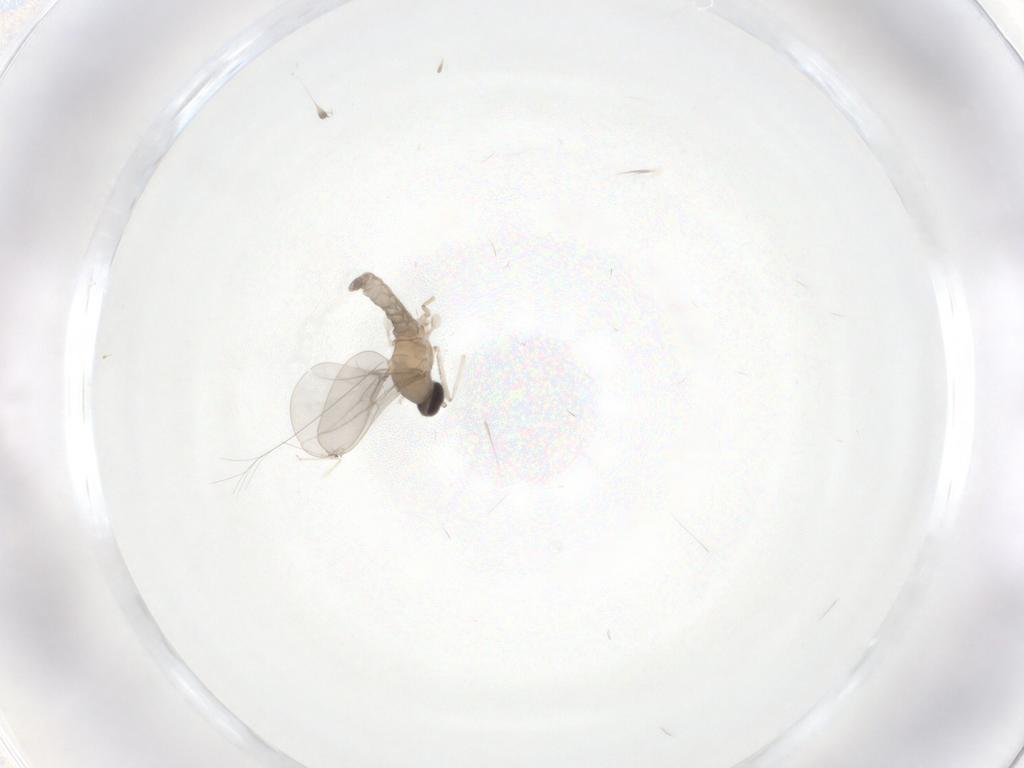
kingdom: Animalia
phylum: Arthropoda
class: Insecta
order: Diptera
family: Cecidomyiidae
